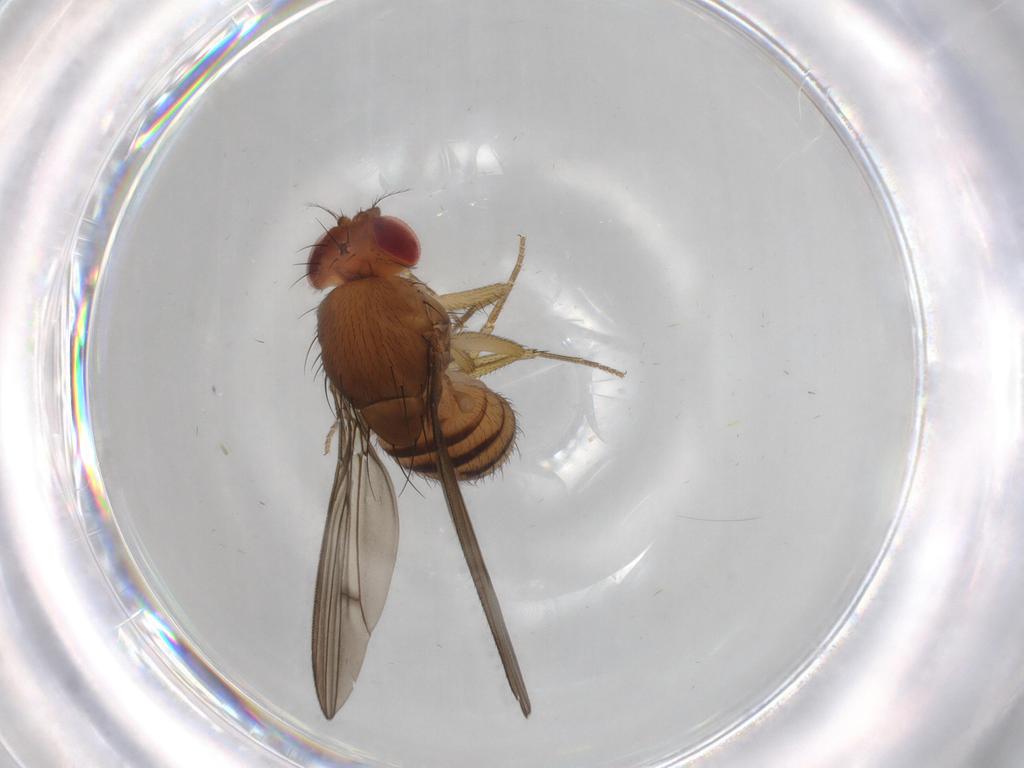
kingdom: Animalia
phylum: Arthropoda
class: Insecta
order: Diptera
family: Drosophilidae
